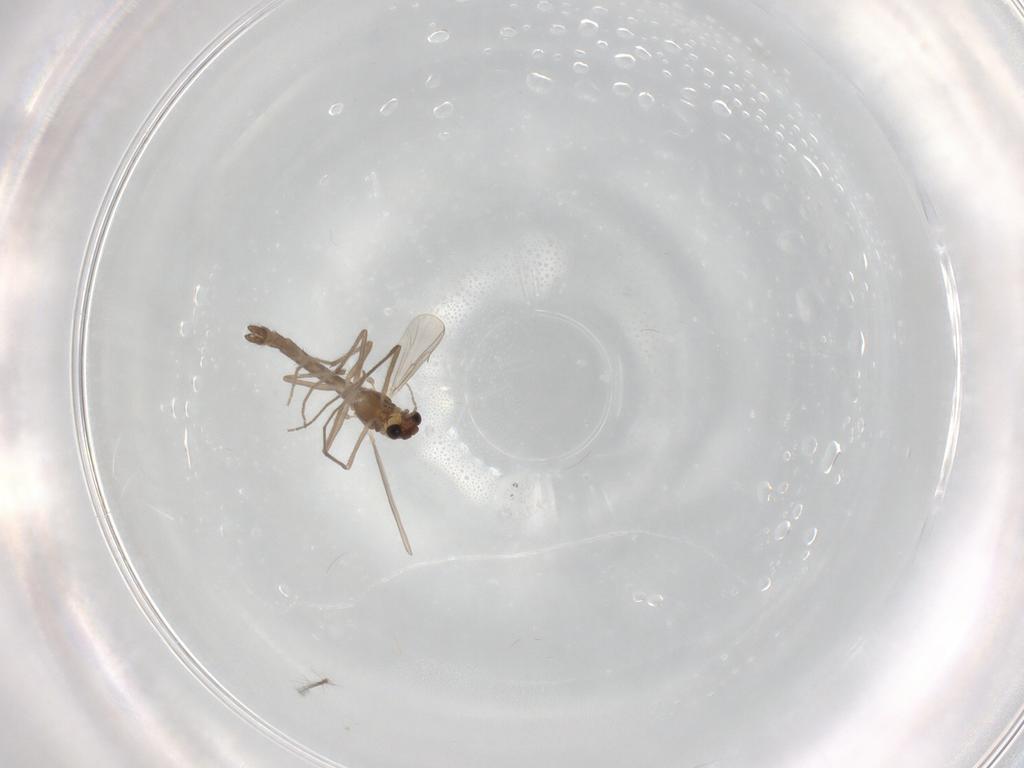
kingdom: Animalia
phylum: Arthropoda
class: Insecta
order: Diptera
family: Chironomidae
